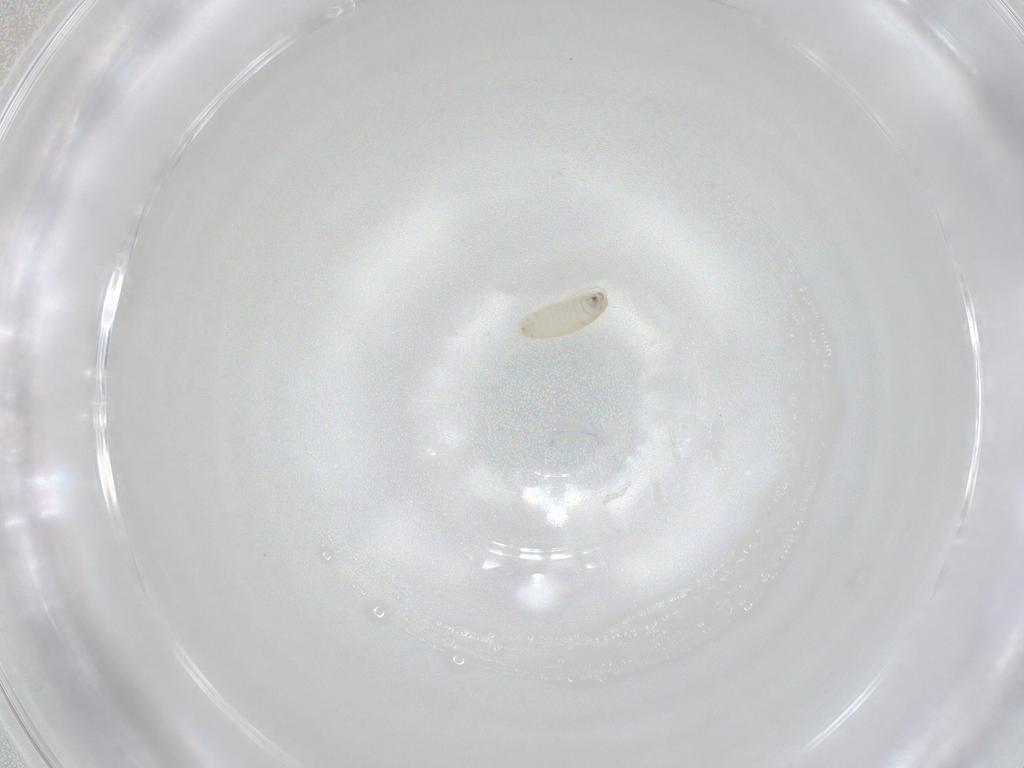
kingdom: Animalia
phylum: Arthropoda
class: Insecta
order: Diptera
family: Tachinidae
